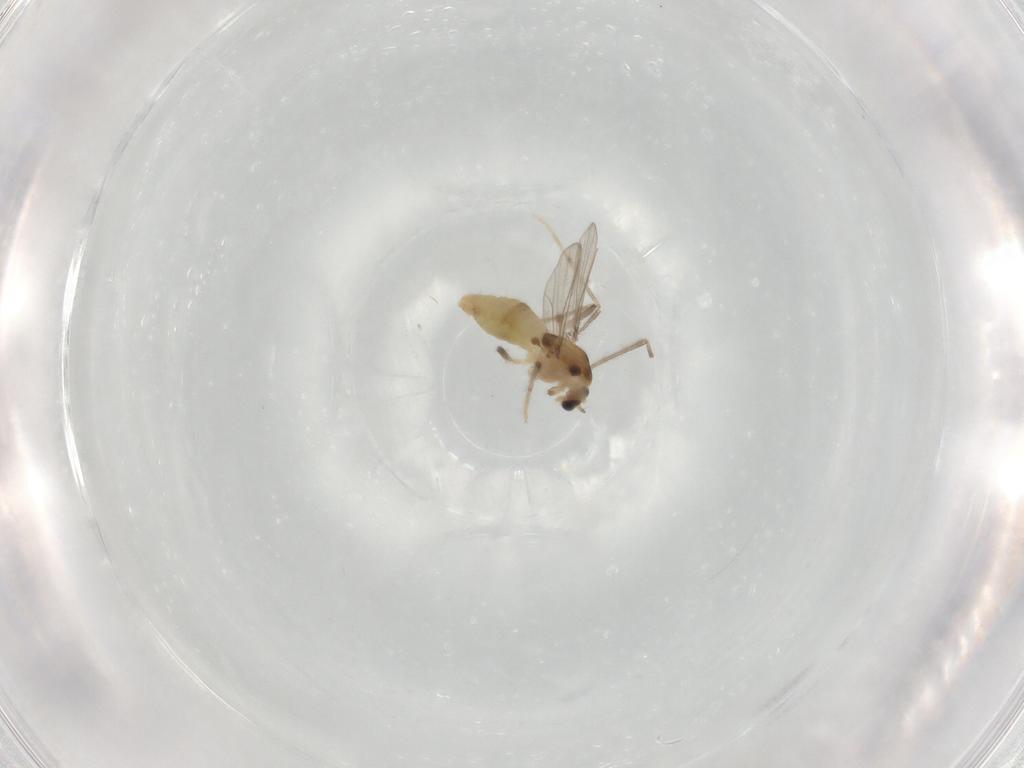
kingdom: Animalia
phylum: Arthropoda
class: Insecta
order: Diptera
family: Chironomidae
